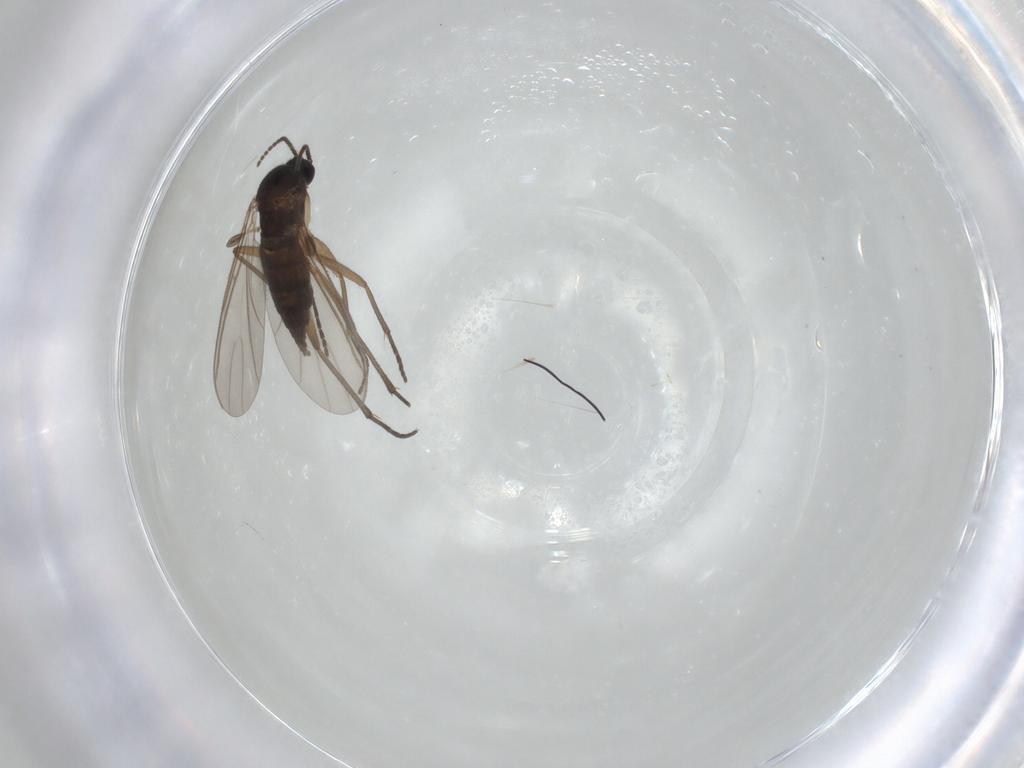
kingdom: Animalia
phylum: Arthropoda
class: Insecta
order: Diptera
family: Sciaridae
